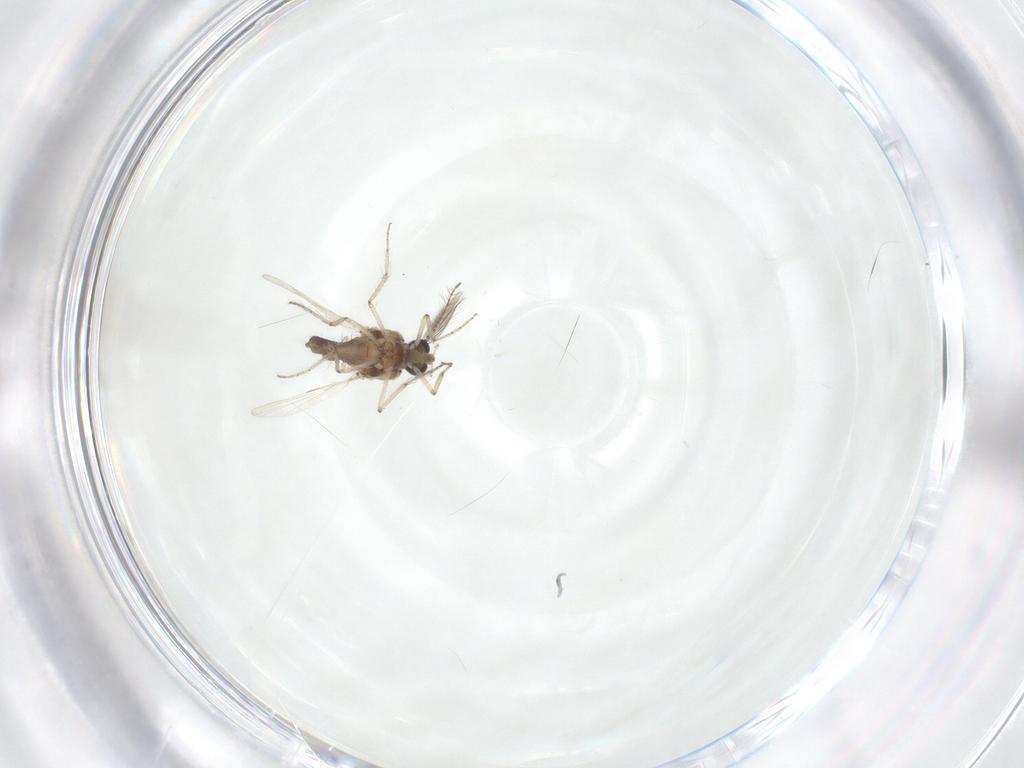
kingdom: Animalia
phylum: Arthropoda
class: Insecta
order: Diptera
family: Ceratopogonidae
